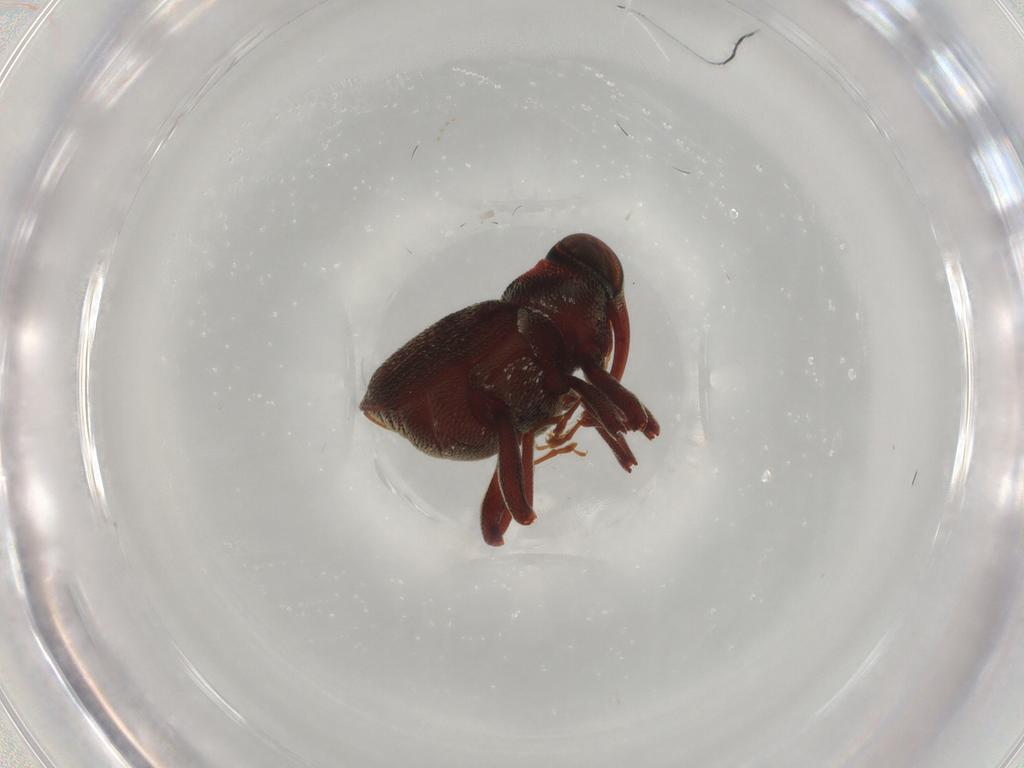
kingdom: Animalia
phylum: Arthropoda
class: Insecta
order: Coleoptera
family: Curculionidae
